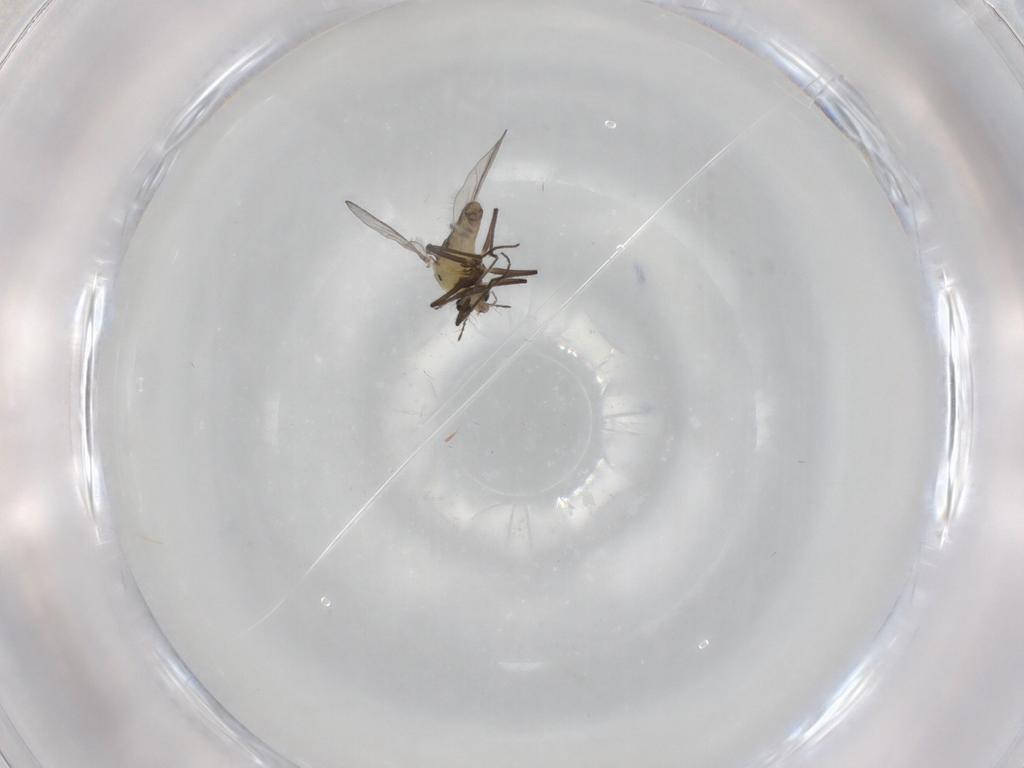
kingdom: Animalia
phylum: Arthropoda
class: Insecta
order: Diptera
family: Chironomidae
